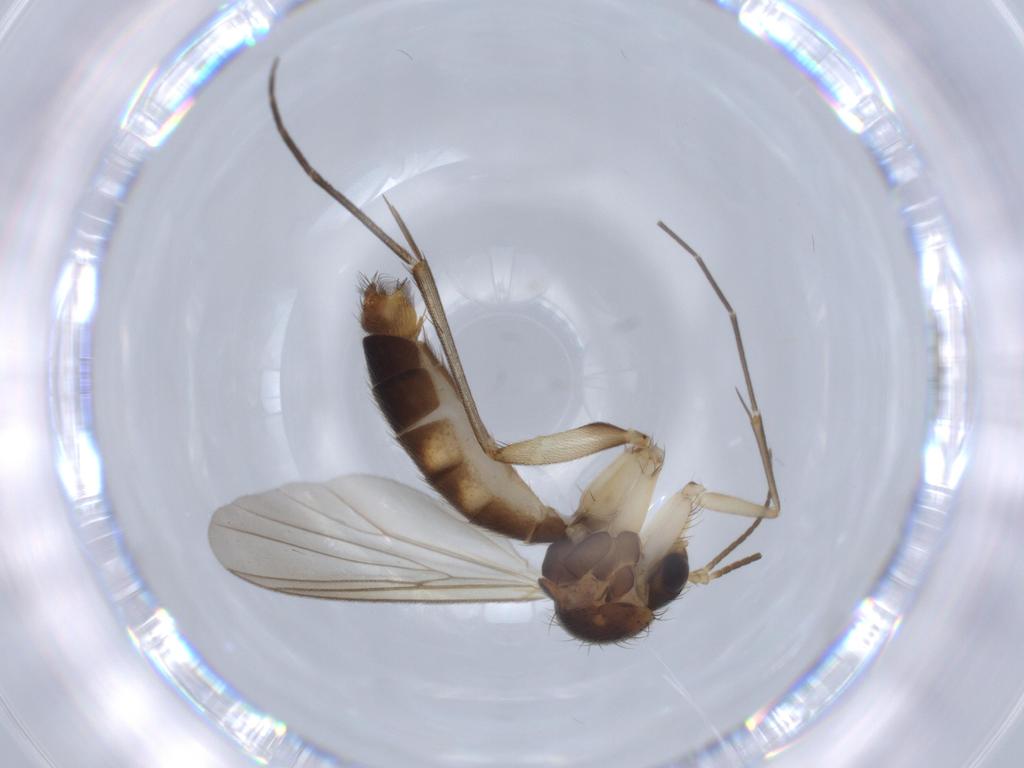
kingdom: Animalia
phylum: Arthropoda
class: Insecta
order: Diptera
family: Mycetophilidae
